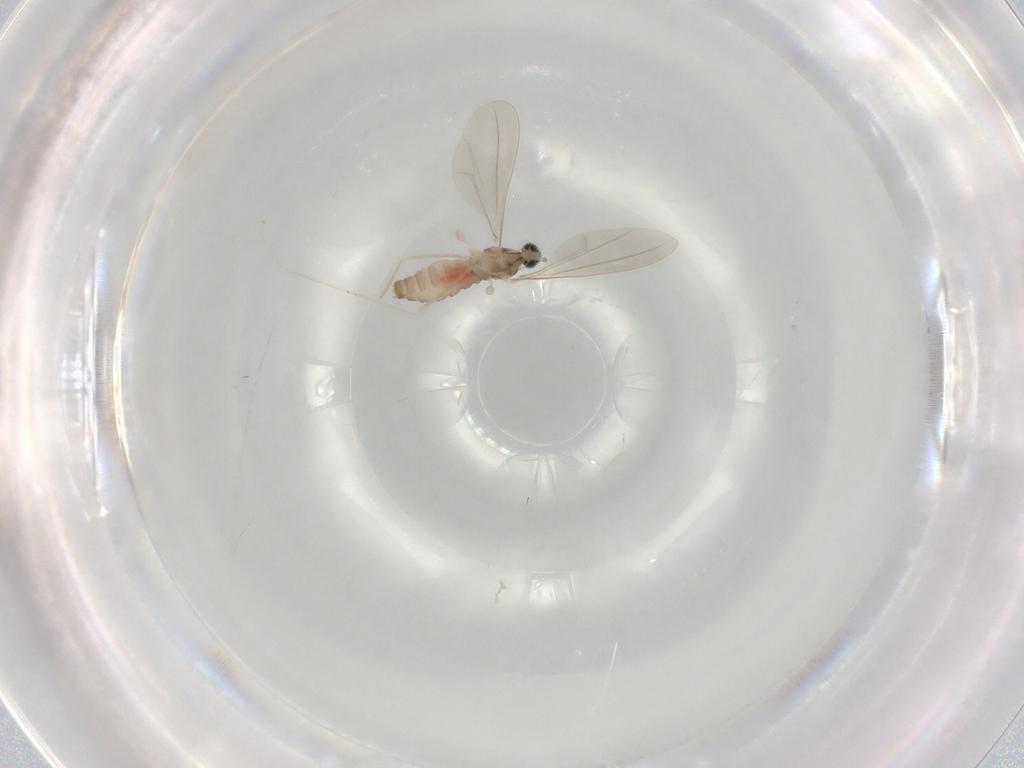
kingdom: Animalia
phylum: Arthropoda
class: Insecta
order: Diptera
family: Cecidomyiidae
